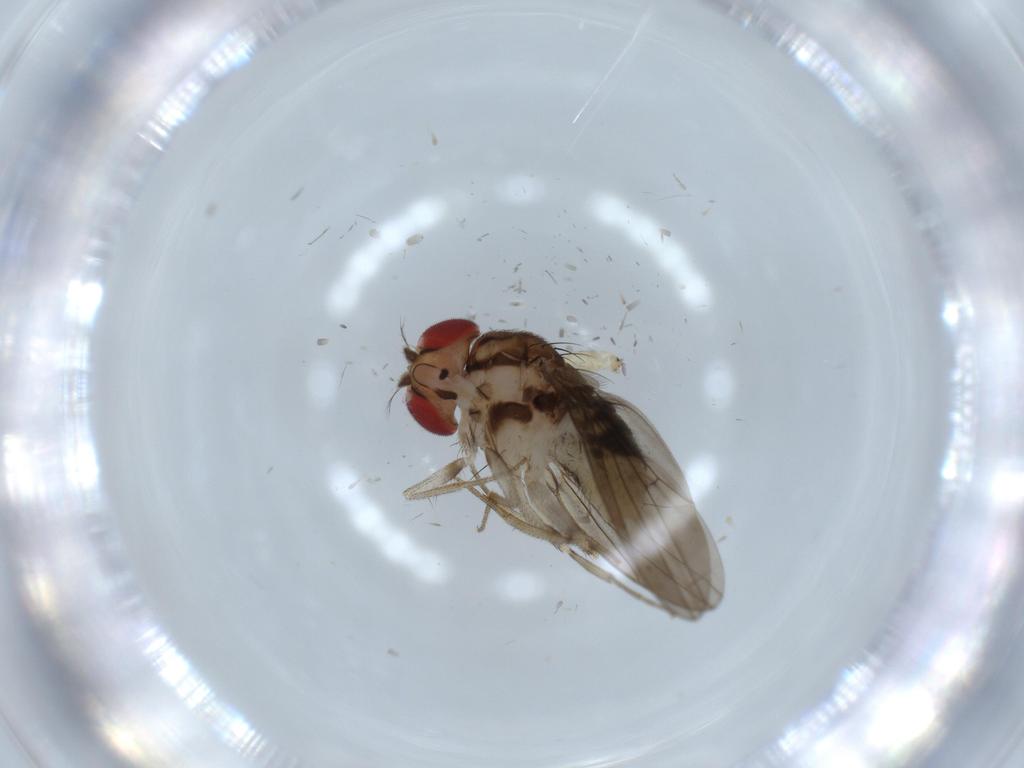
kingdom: Animalia
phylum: Arthropoda
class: Insecta
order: Diptera
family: Drosophilidae
